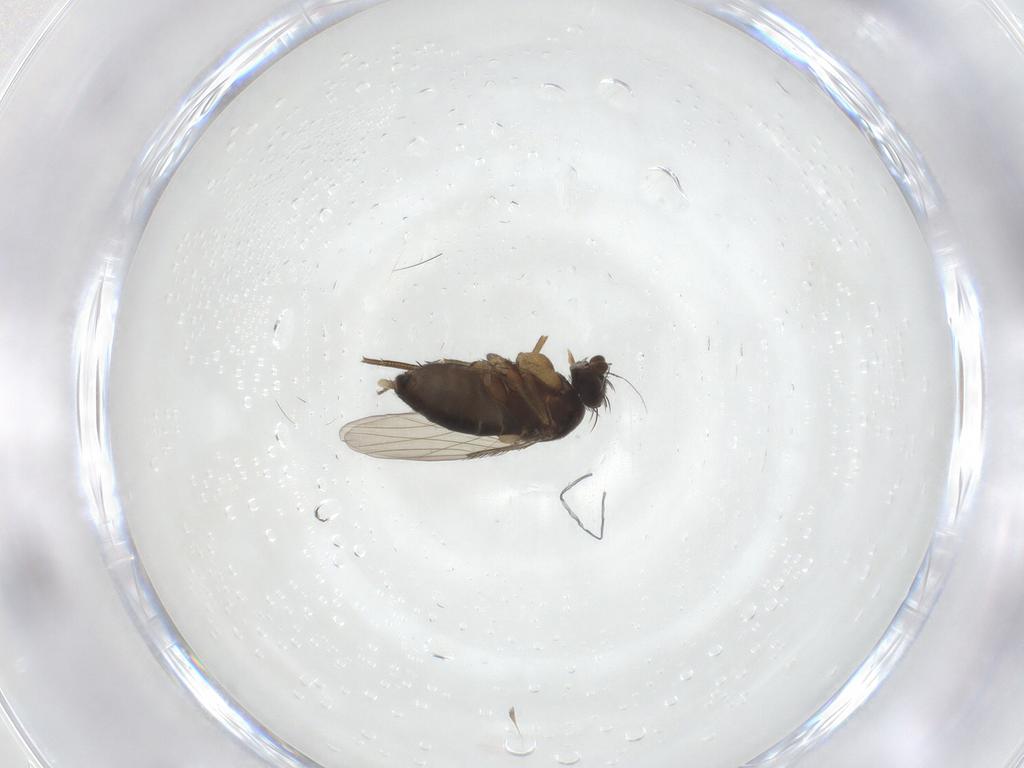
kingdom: Animalia
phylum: Arthropoda
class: Insecta
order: Diptera
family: Phoridae
